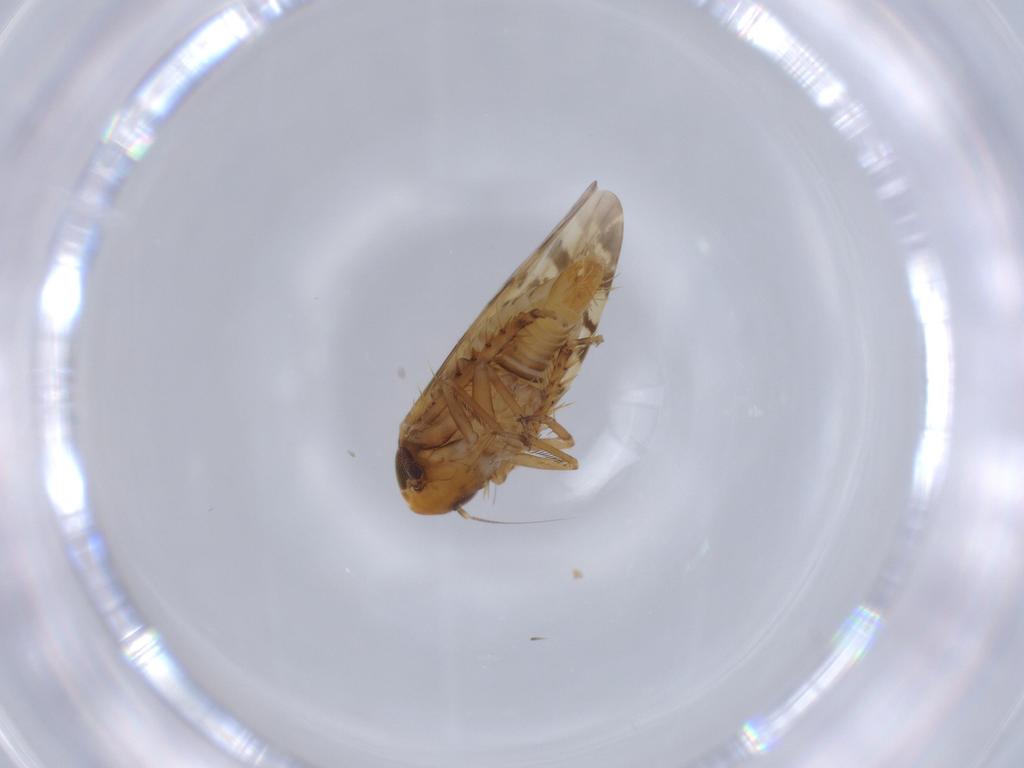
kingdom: Animalia
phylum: Arthropoda
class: Insecta
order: Hemiptera
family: Cicadellidae
